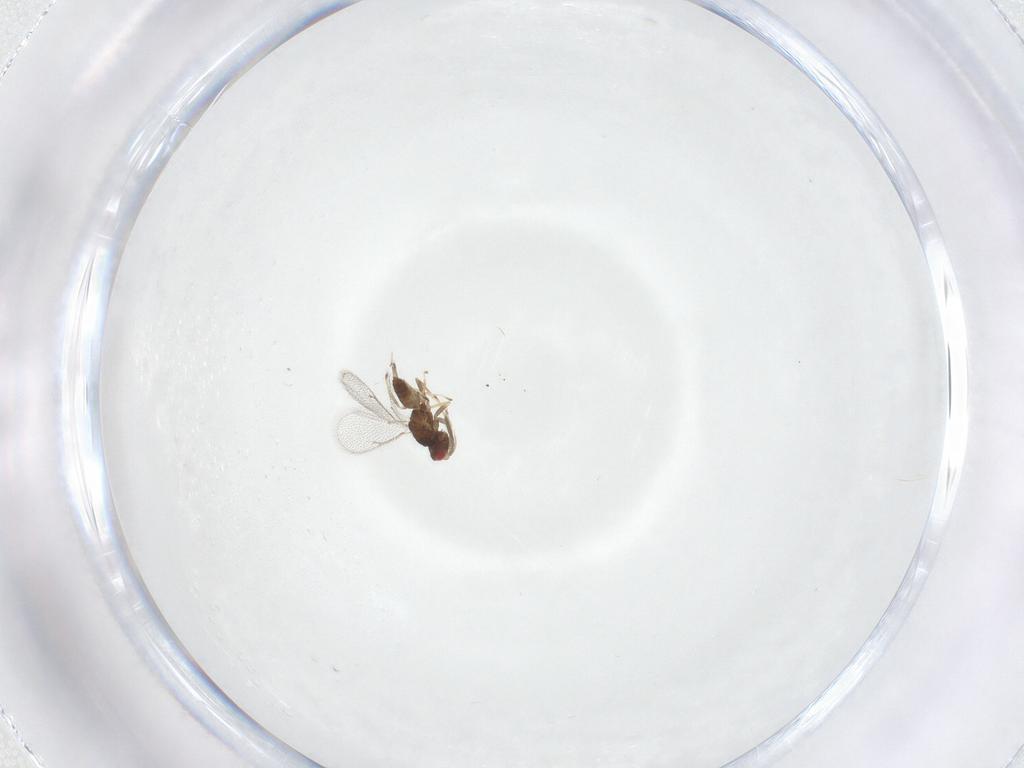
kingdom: Animalia
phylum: Arthropoda
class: Insecta
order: Hymenoptera
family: Eulophidae
